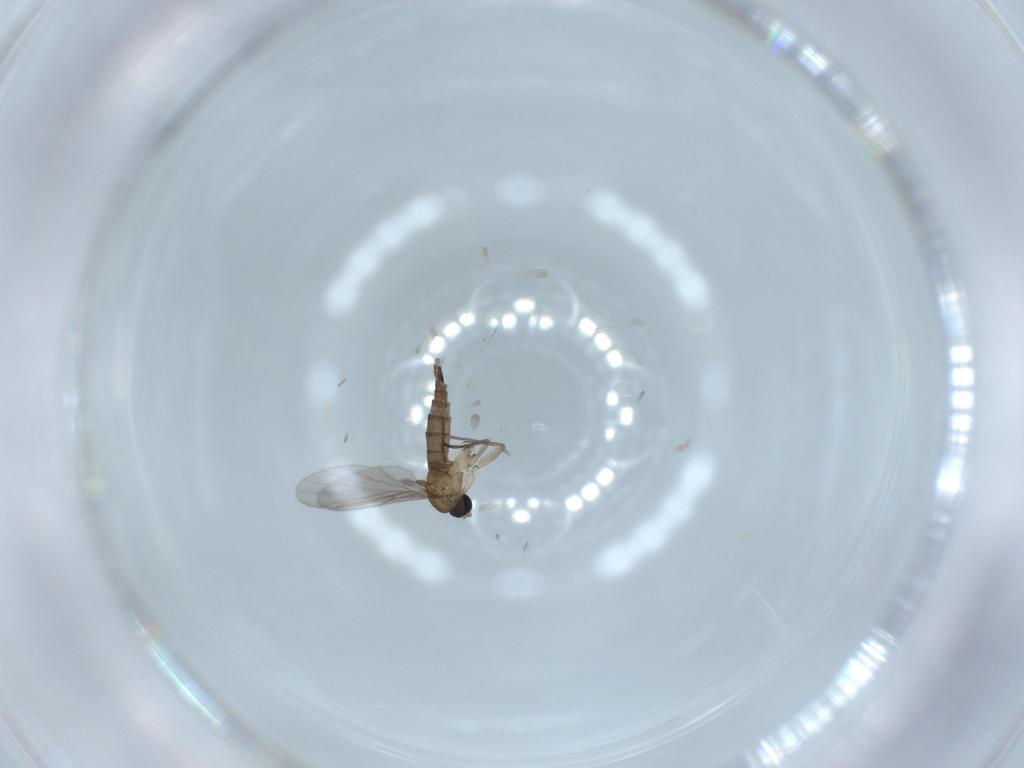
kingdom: Animalia
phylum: Arthropoda
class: Insecta
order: Diptera
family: Sciaridae
